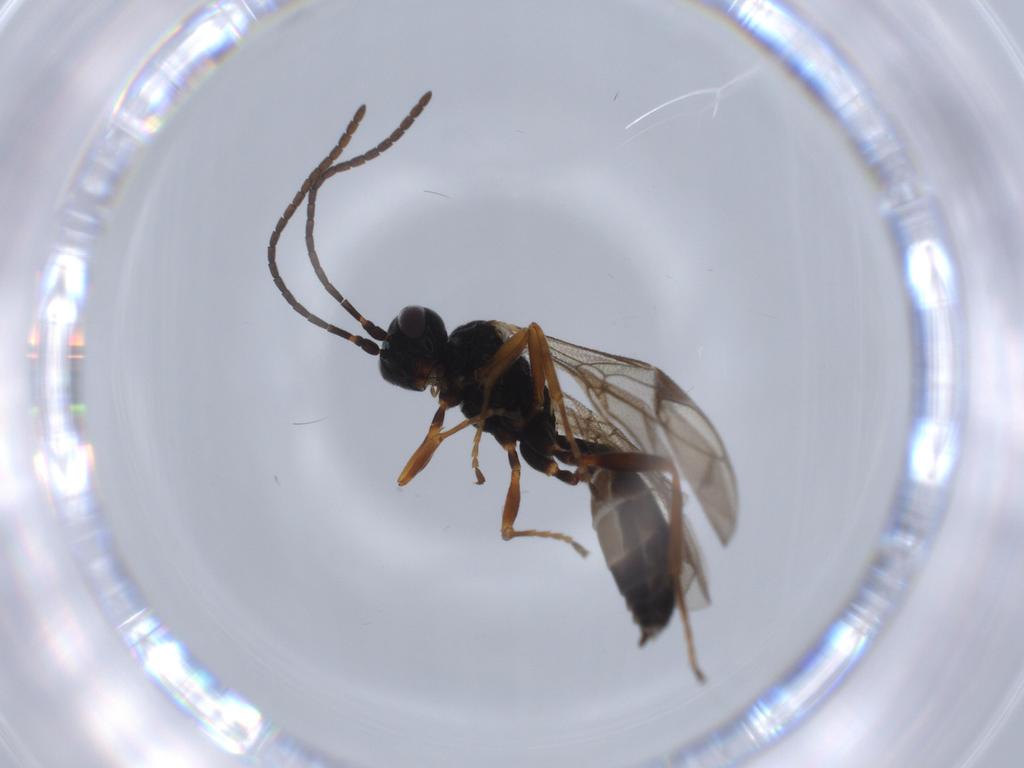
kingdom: Animalia
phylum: Arthropoda
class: Insecta
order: Hymenoptera
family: Ichneumonidae
